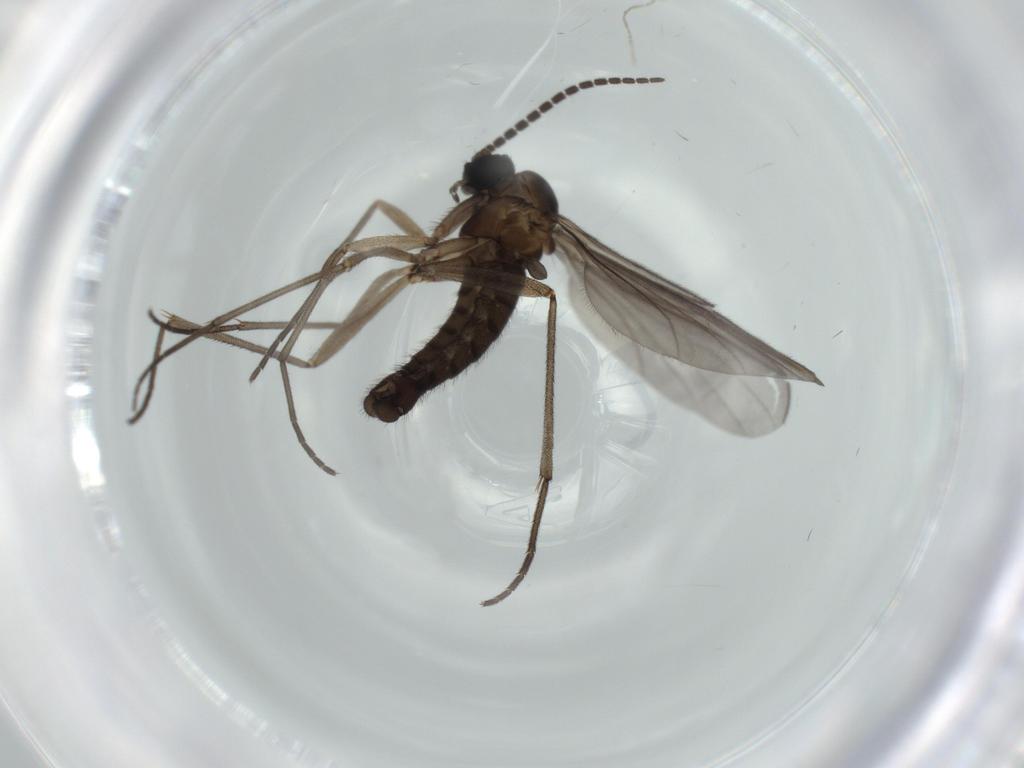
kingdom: Animalia
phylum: Arthropoda
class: Insecta
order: Diptera
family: Sciaridae
